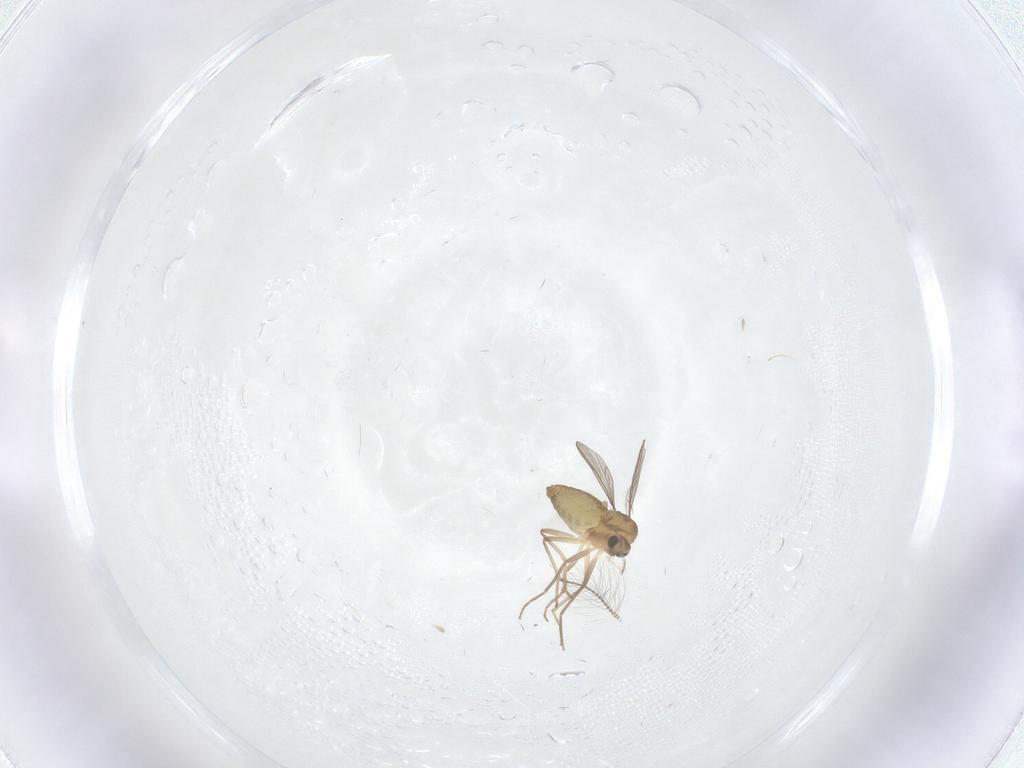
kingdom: Animalia
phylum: Arthropoda
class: Insecta
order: Diptera
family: Chironomidae
